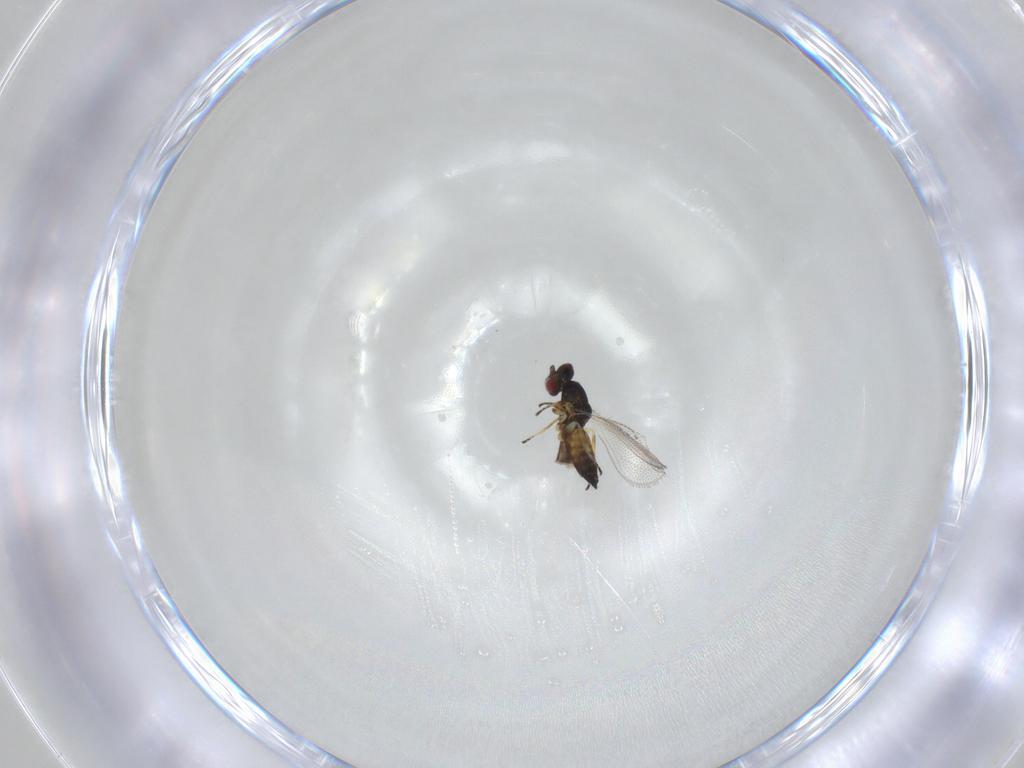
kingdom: Animalia
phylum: Arthropoda
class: Insecta
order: Hymenoptera
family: Eulophidae
